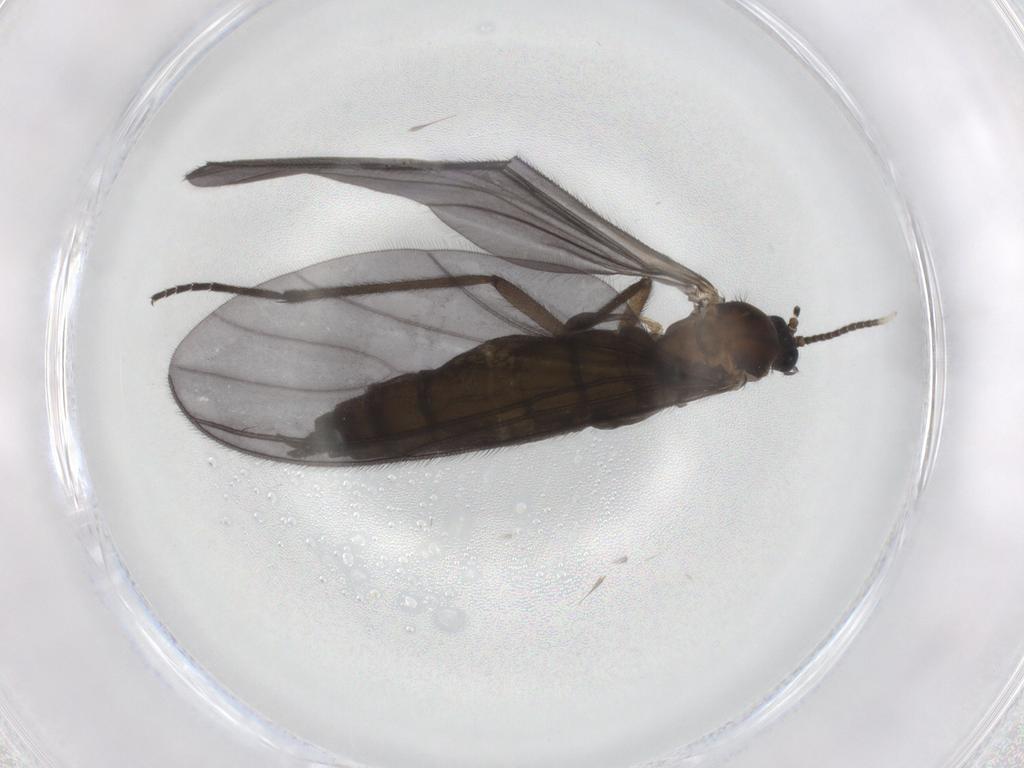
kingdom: Animalia
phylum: Arthropoda
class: Insecta
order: Diptera
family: Sciaridae
